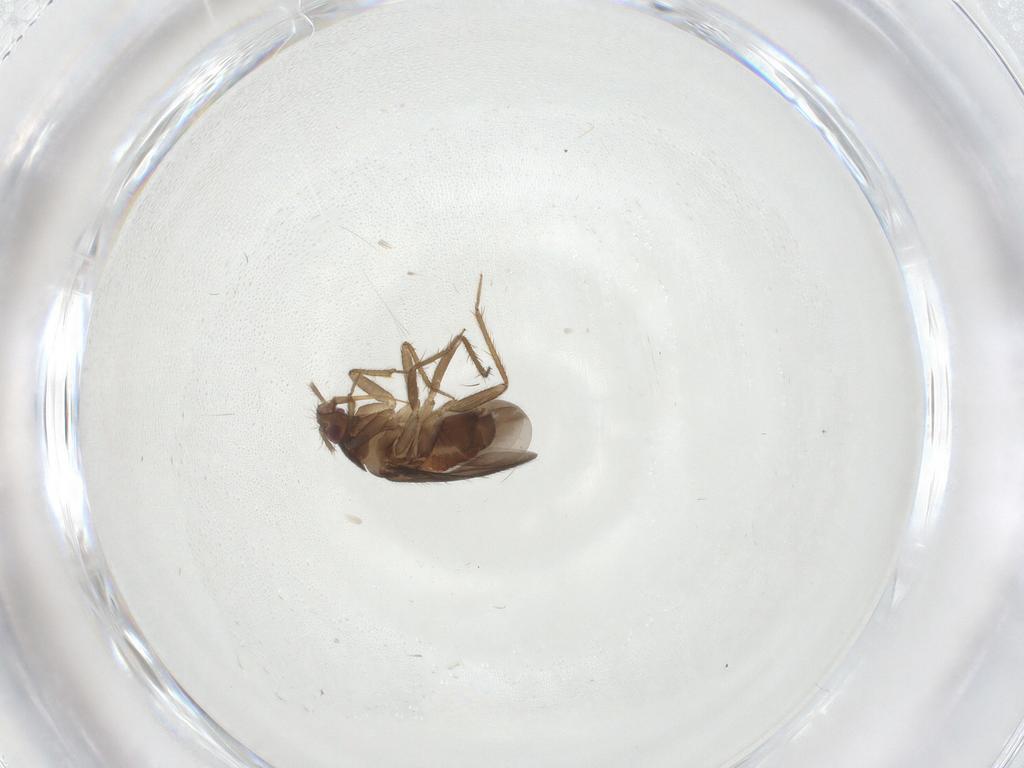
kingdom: Animalia
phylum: Arthropoda
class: Insecta
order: Hemiptera
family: Ceratocombidae
